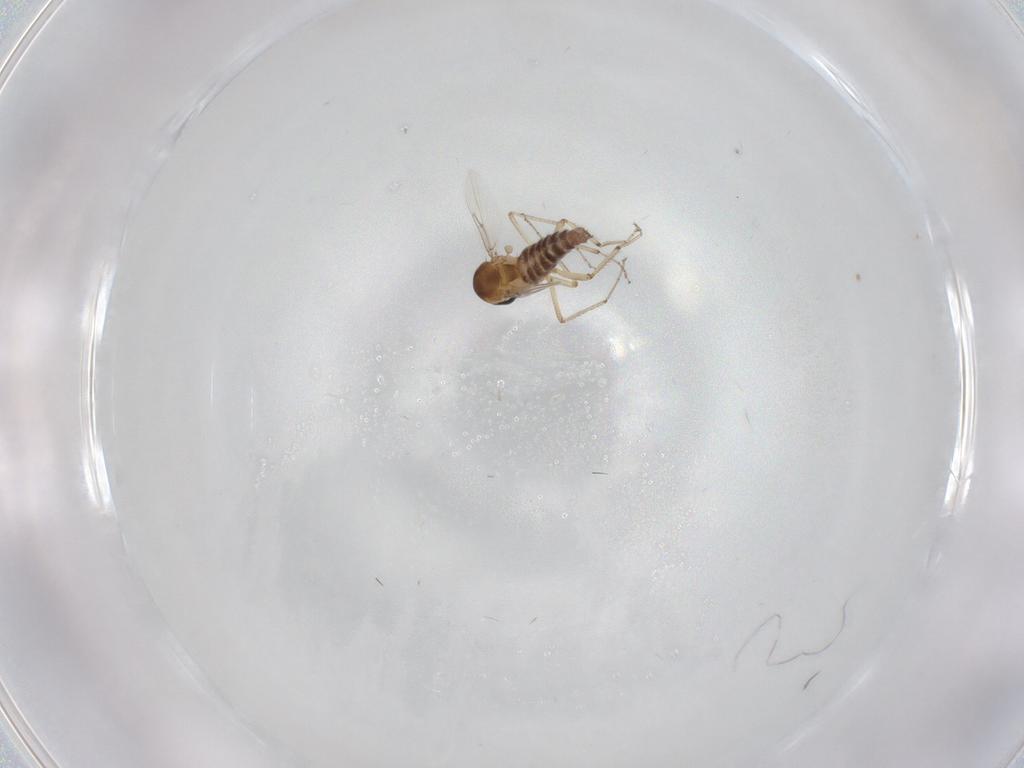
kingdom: Animalia
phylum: Arthropoda
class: Insecta
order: Diptera
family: Ceratopogonidae
